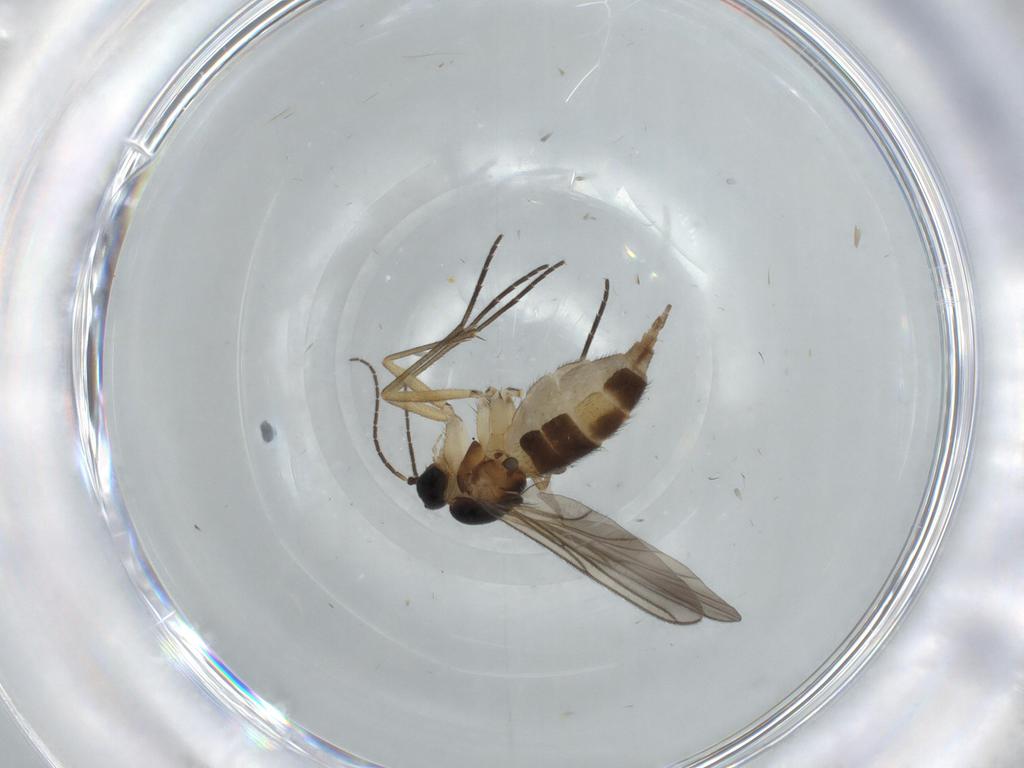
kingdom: Animalia
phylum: Arthropoda
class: Insecta
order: Diptera
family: Sciaridae
